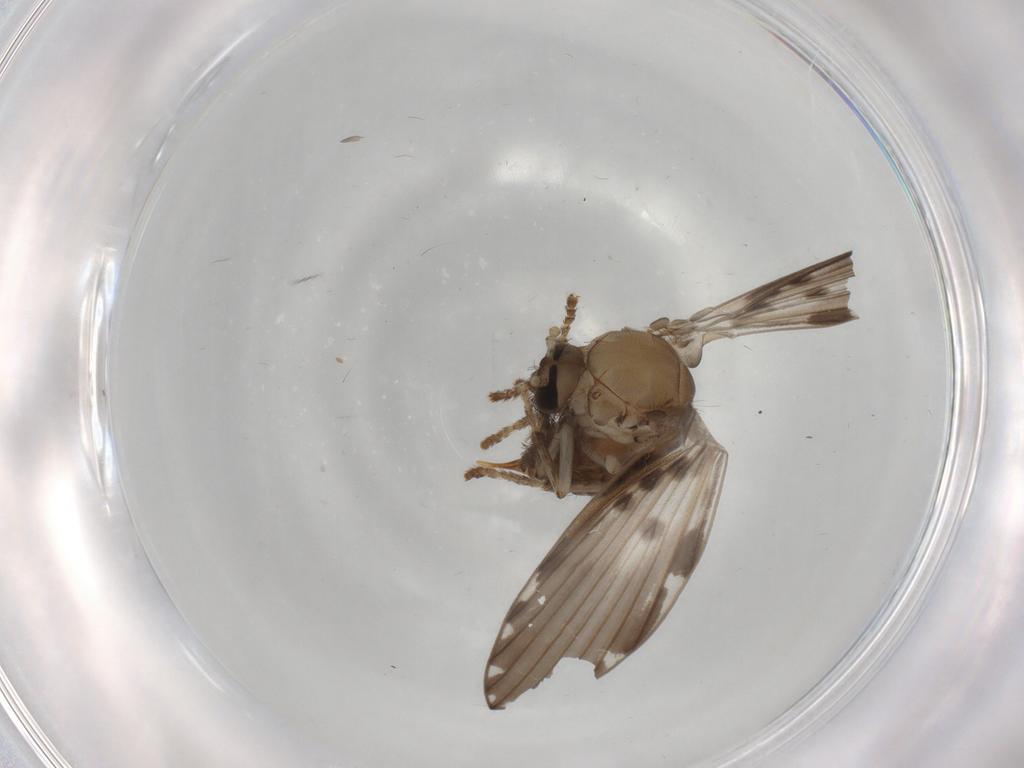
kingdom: Animalia
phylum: Arthropoda
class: Insecta
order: Diptera
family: Psychodidae
